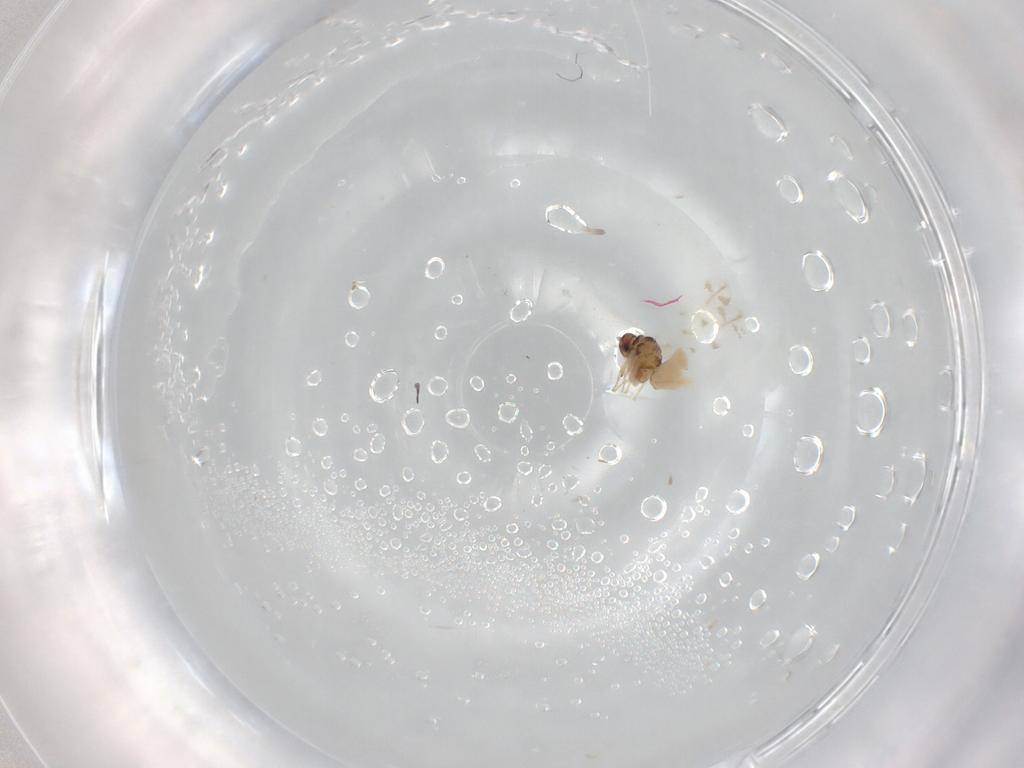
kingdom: Animalia
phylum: Arthropoda
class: Insecta
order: Hemiptera
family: Aleyrodidae
